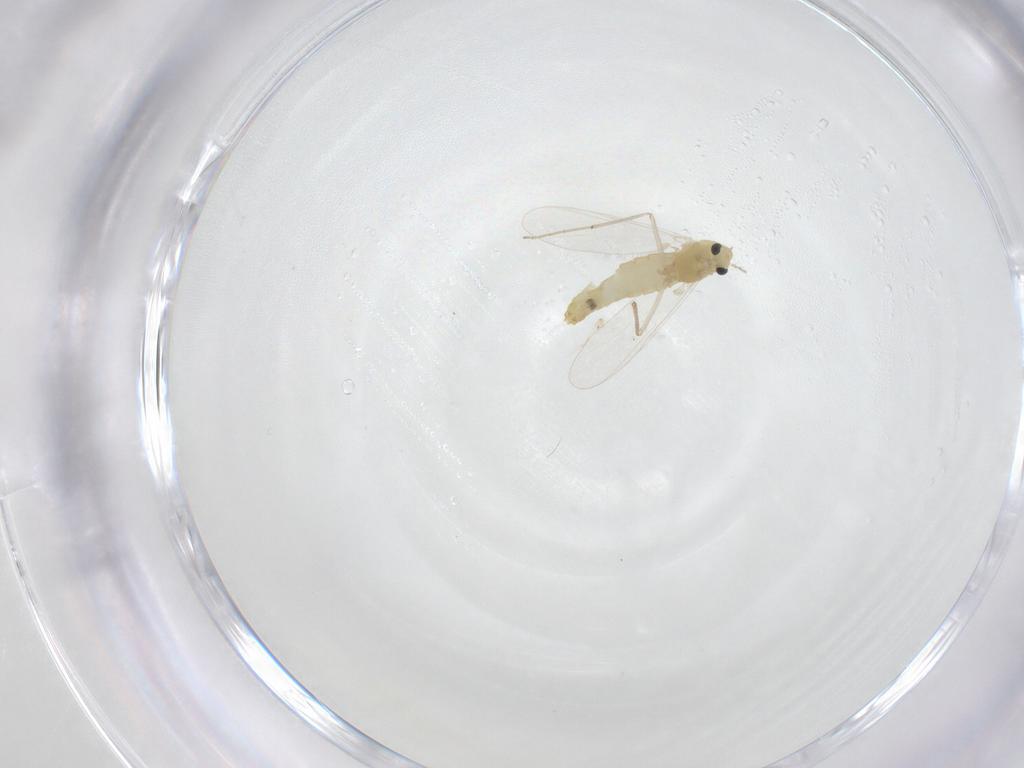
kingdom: Animalia
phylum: Arthropoda
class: Insecta
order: Diptera
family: Chironomidae
